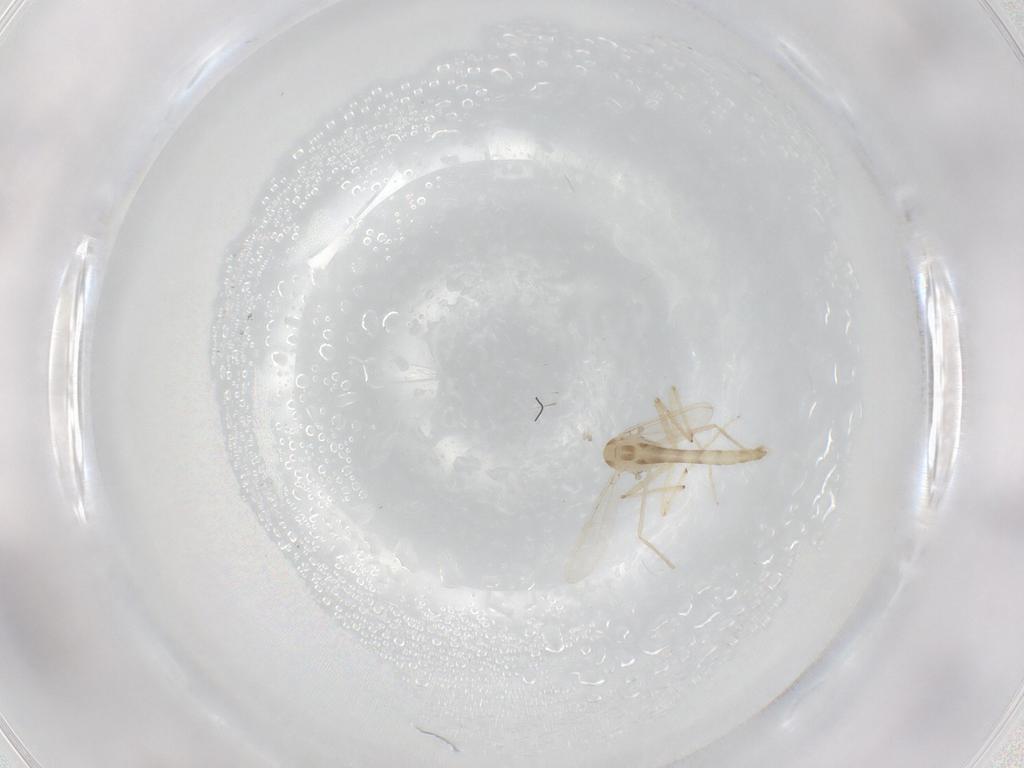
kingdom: Animalia
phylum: Arthropoda
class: Insecta
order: Diptera
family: Chironomidae
